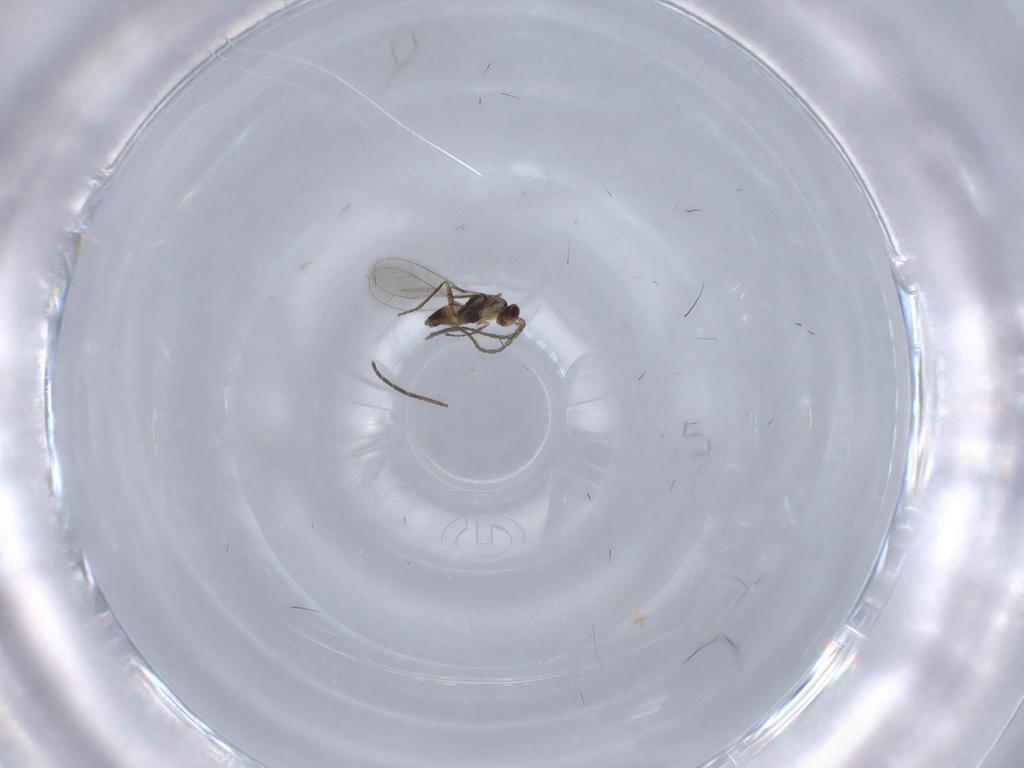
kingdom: Animalia
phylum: Arthropoda
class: Insecta
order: Hymenoptera
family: Mymaridae
